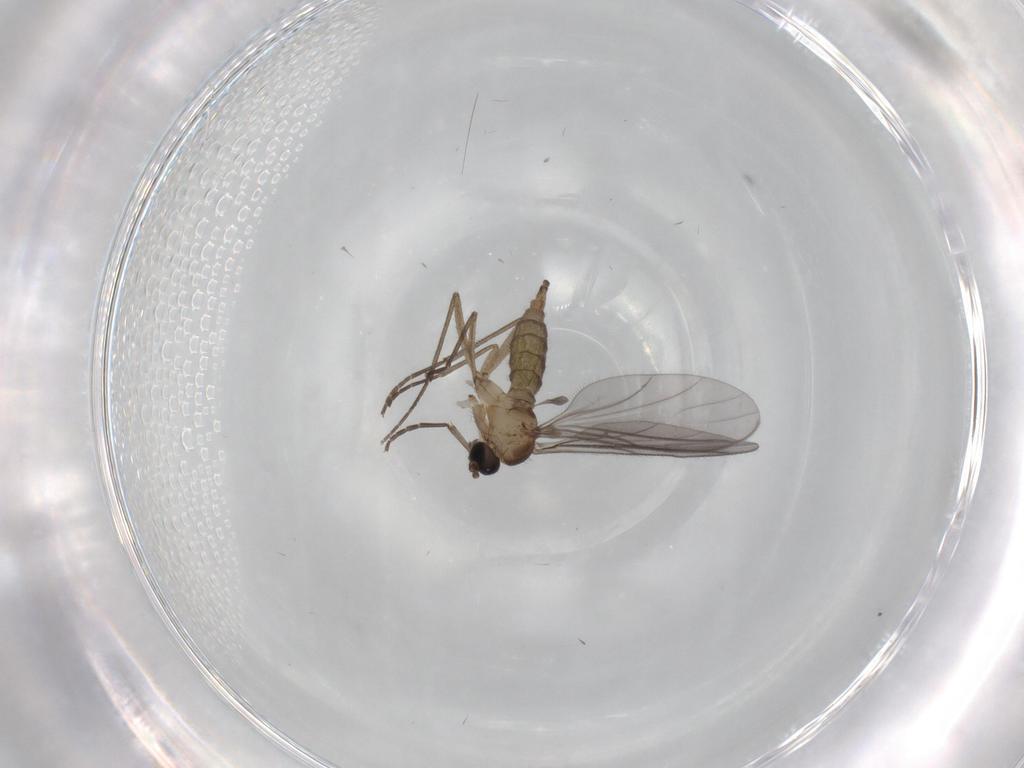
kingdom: Animalia
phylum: Arthropoda
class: Insecta
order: Diptera
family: Sciaridae
